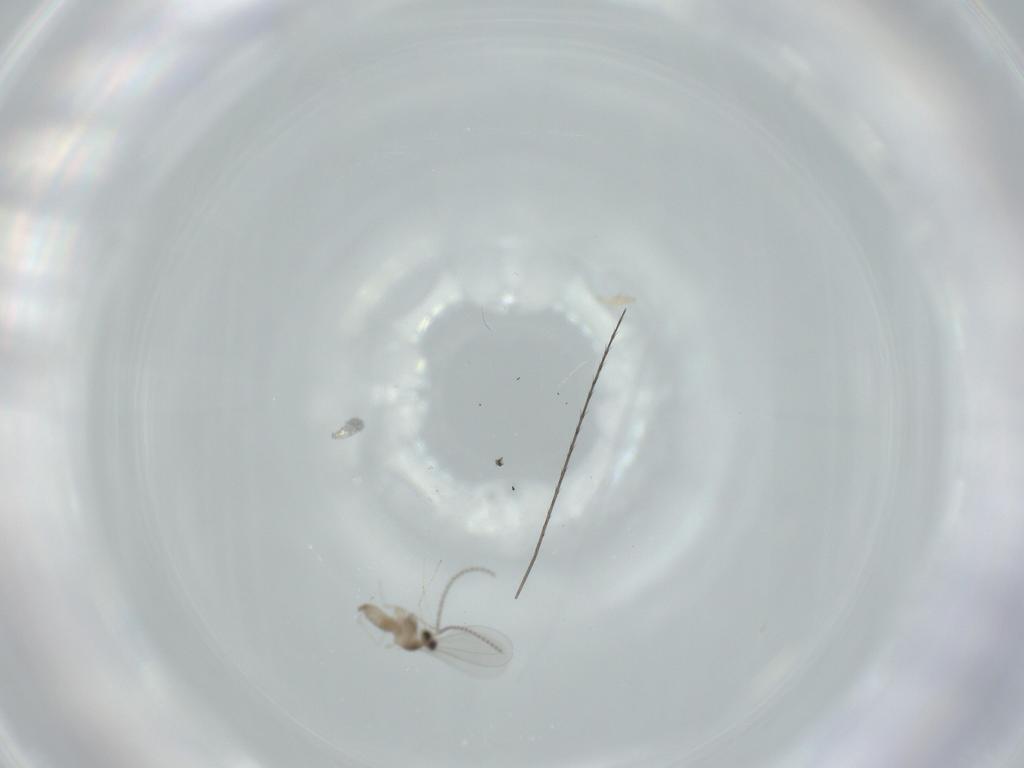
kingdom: Animalia
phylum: Arthropoda
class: Insecta
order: Diptera
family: Cecidomyiidae
